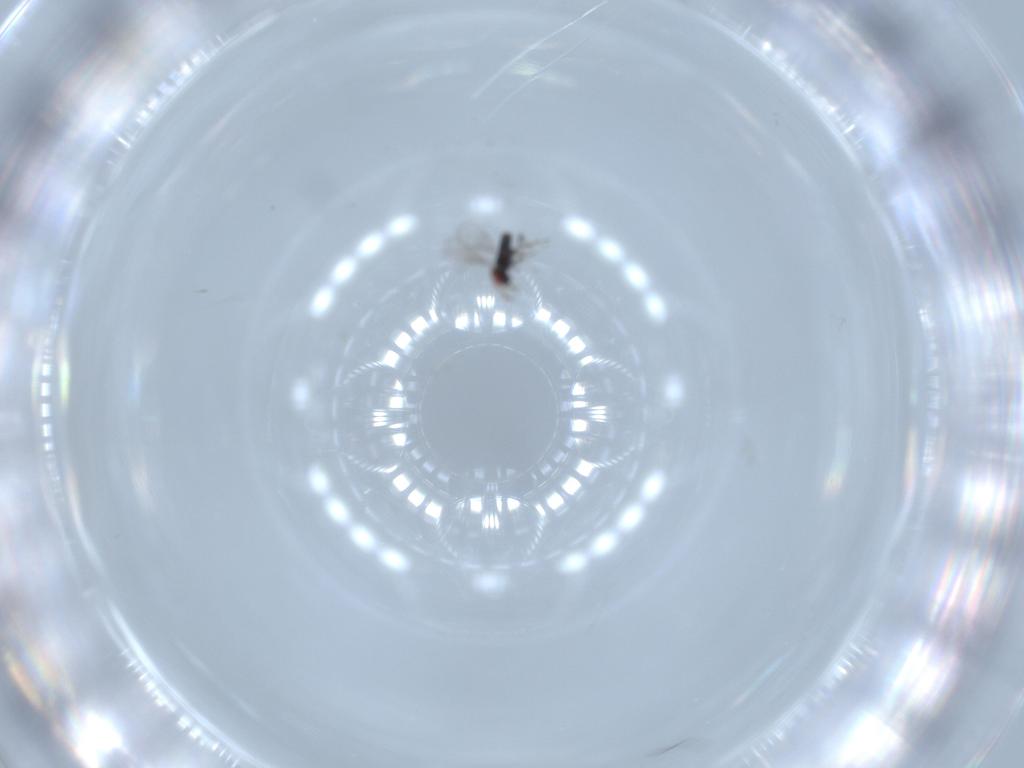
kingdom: Animalia
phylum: Arthropoda
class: Insecta
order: Hymenoptera
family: Azotidae
